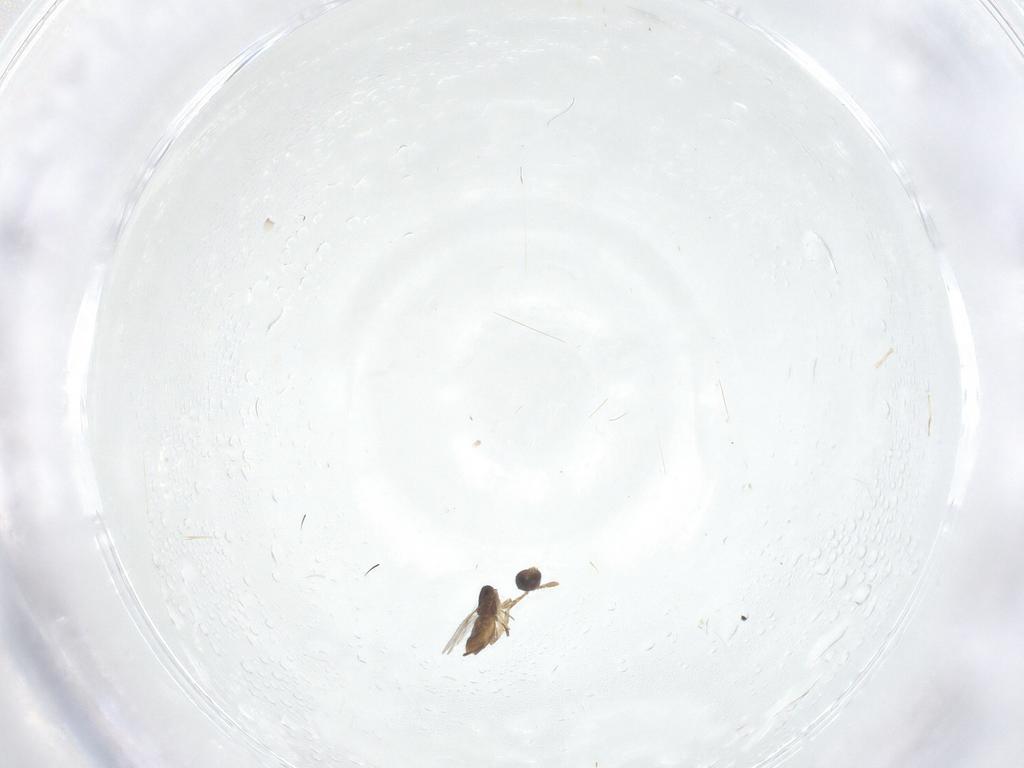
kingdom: Animalia
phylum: Arthropoda
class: Insecta
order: Hymenoptera
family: Encyrtidae
